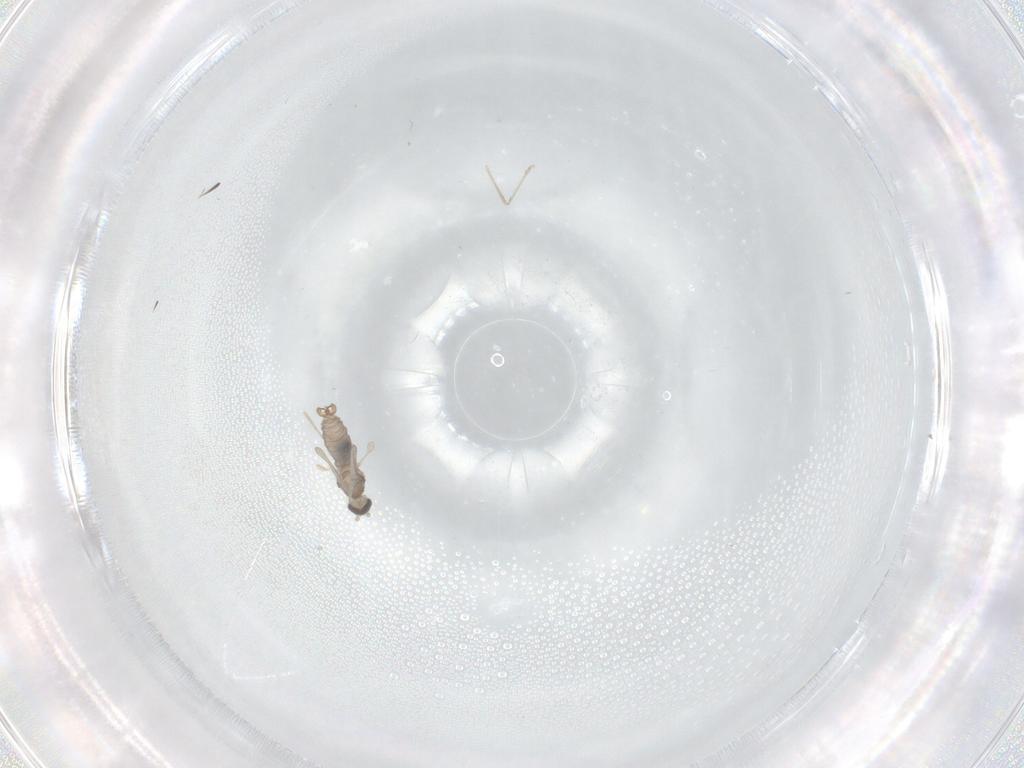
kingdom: Animalia
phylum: Arthropoda
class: Insecta
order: Diptera
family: Cecidomyiidae
